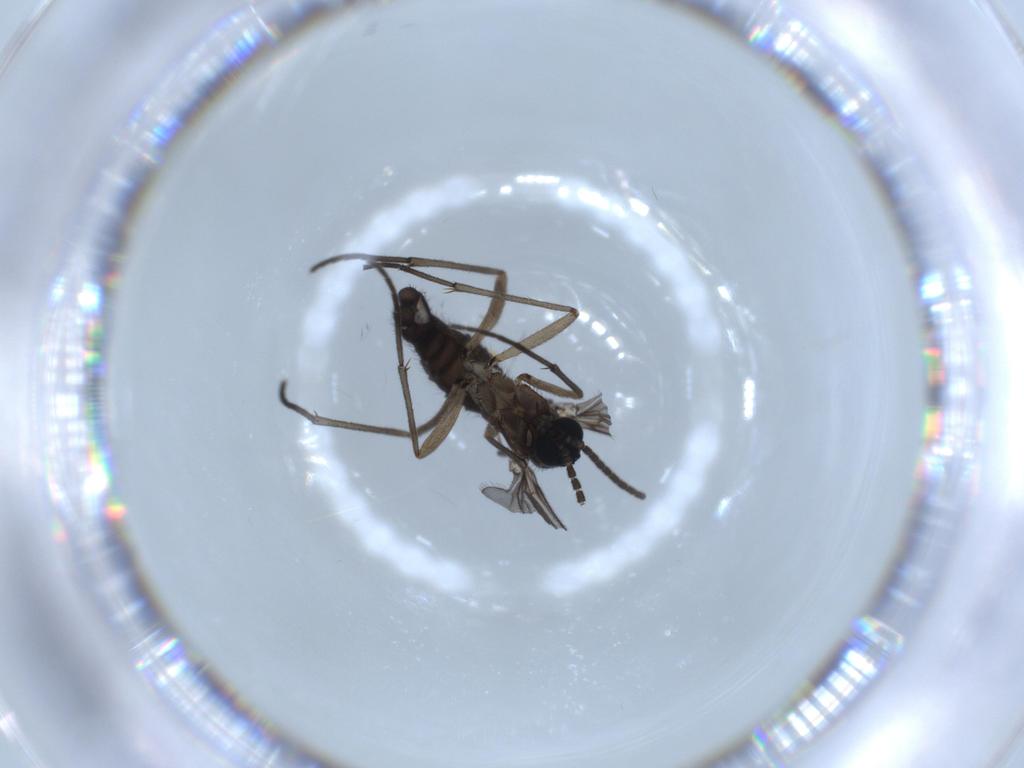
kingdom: Animalia
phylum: Arthropoda
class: Insecta
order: Diptera
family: Sciaridae
